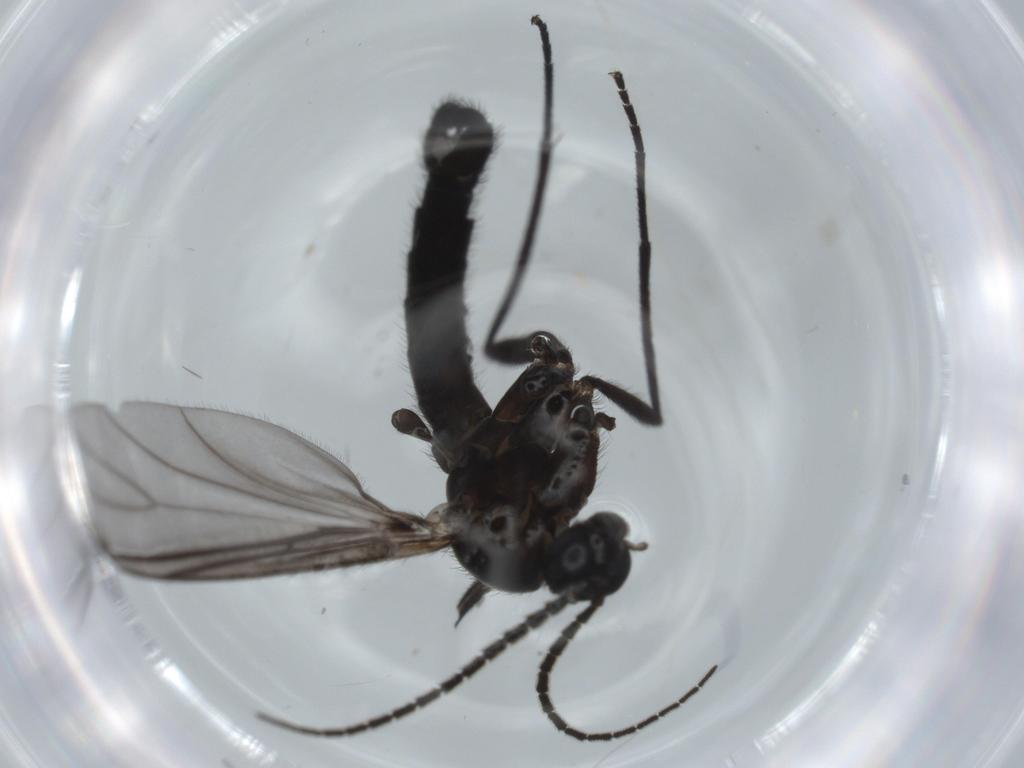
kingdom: Animalia
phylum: Arthropoda
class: Insecta
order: Diptera
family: Sciaridae
